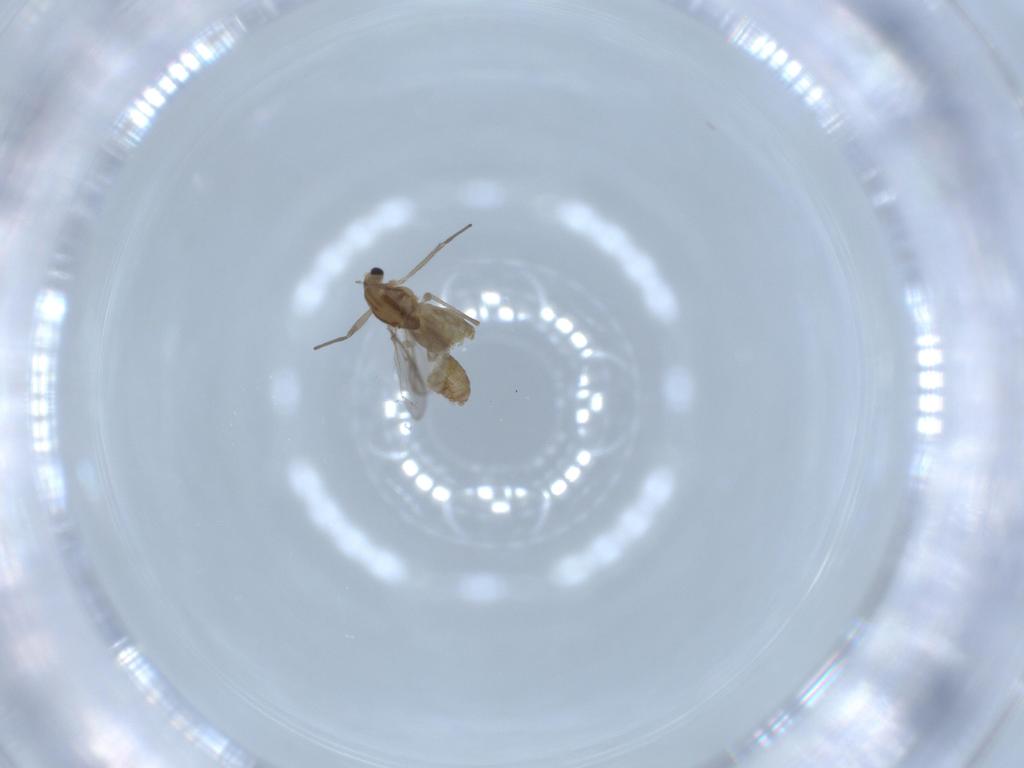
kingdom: Animalia
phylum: Arthropoda
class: Insecta
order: Diptera
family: Chironomidae
